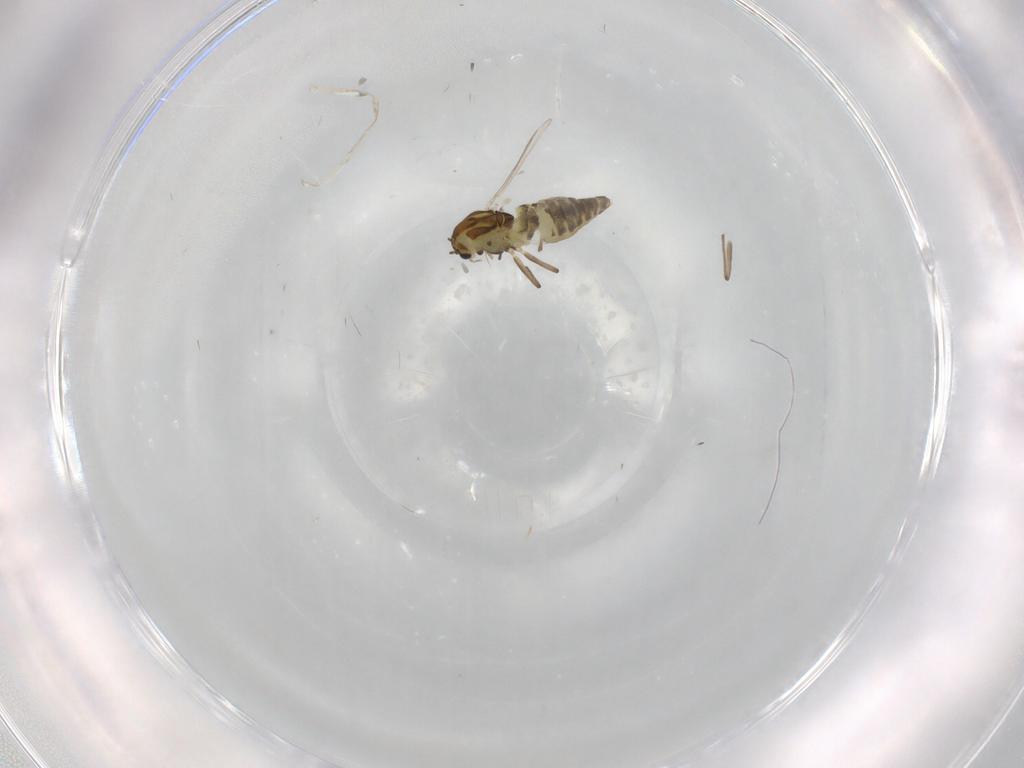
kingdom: Animalia
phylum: Arthropoda
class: Insecta
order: Diptera
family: Chironomidae
